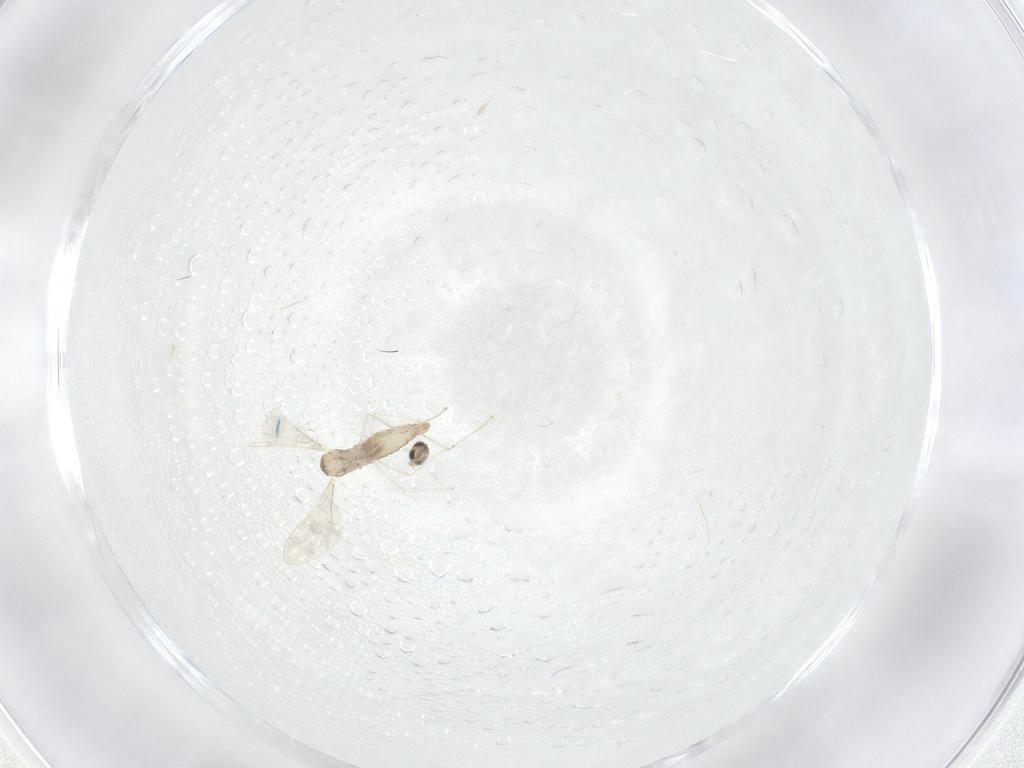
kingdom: Animalia
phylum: Arthropoda
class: Insecta
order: Diptera
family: Cecidomyiidae
